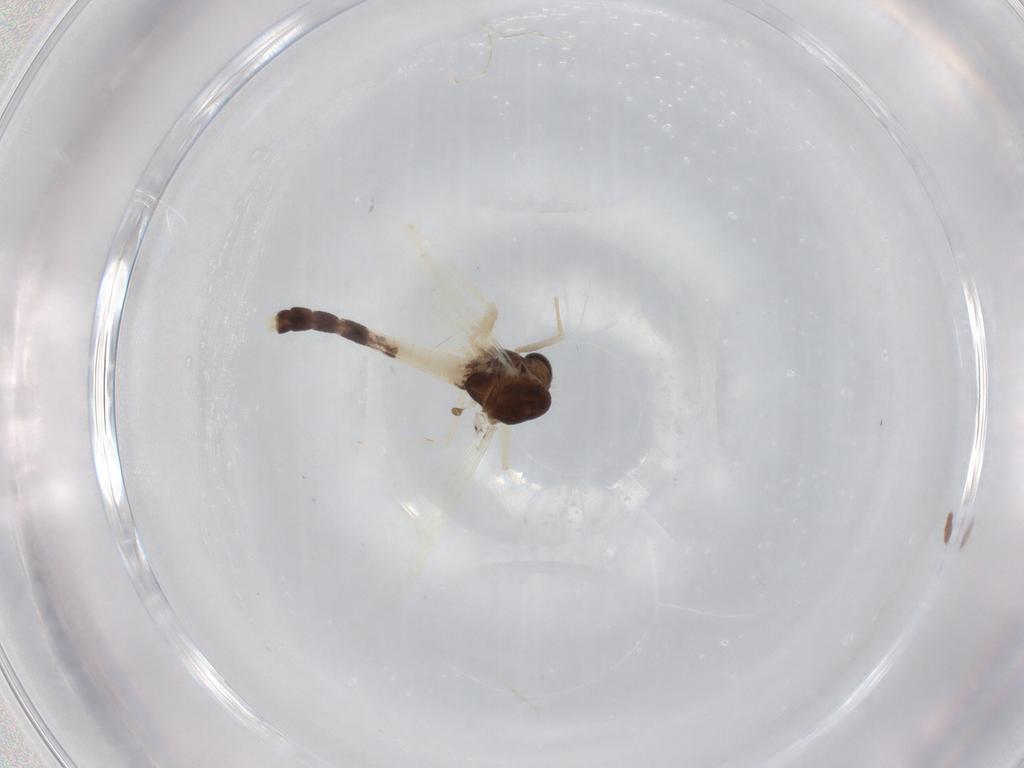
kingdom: Animalia
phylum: Arthropoda
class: Insecta
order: Diptera
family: Chironomidae
